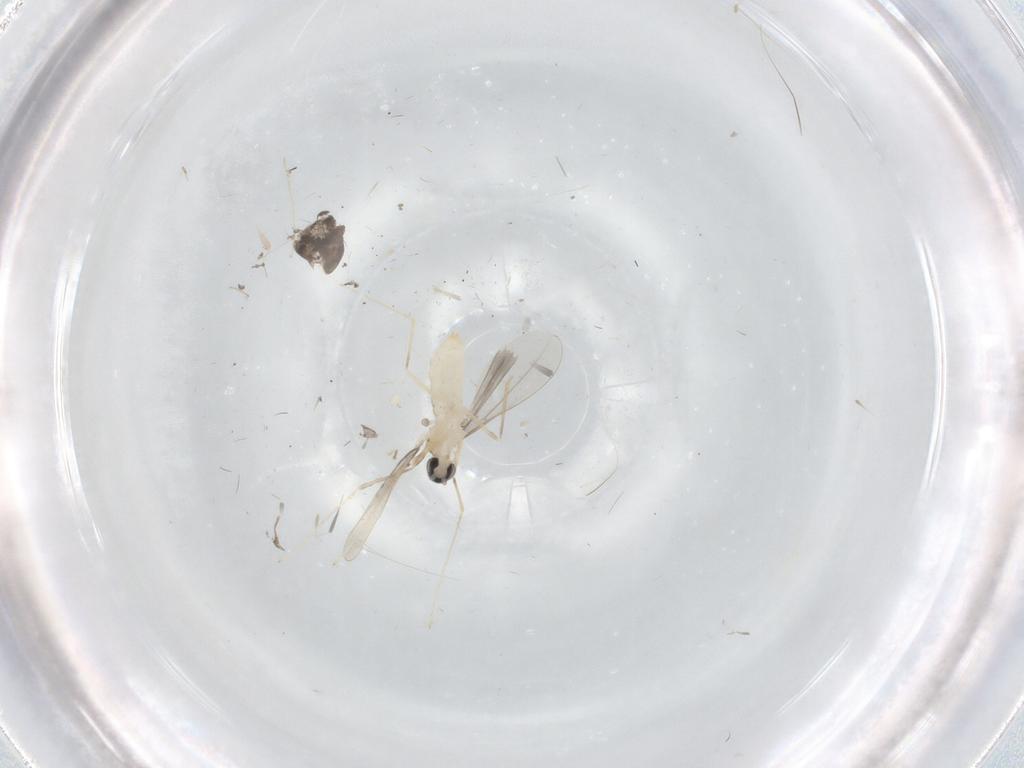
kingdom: Animalia
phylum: Arthropoda
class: Insecta
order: Diptera
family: Cecidomyiidae
